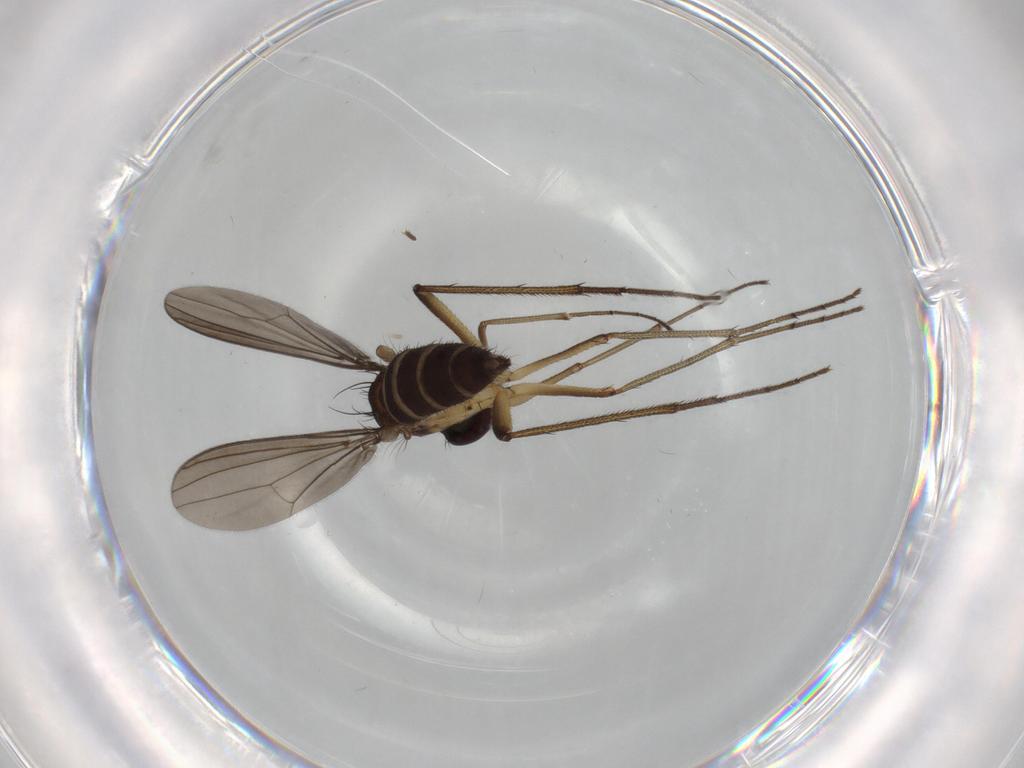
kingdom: Animalia
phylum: Arthropoda
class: Insecta
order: Diptera
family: Dolichopodidae
